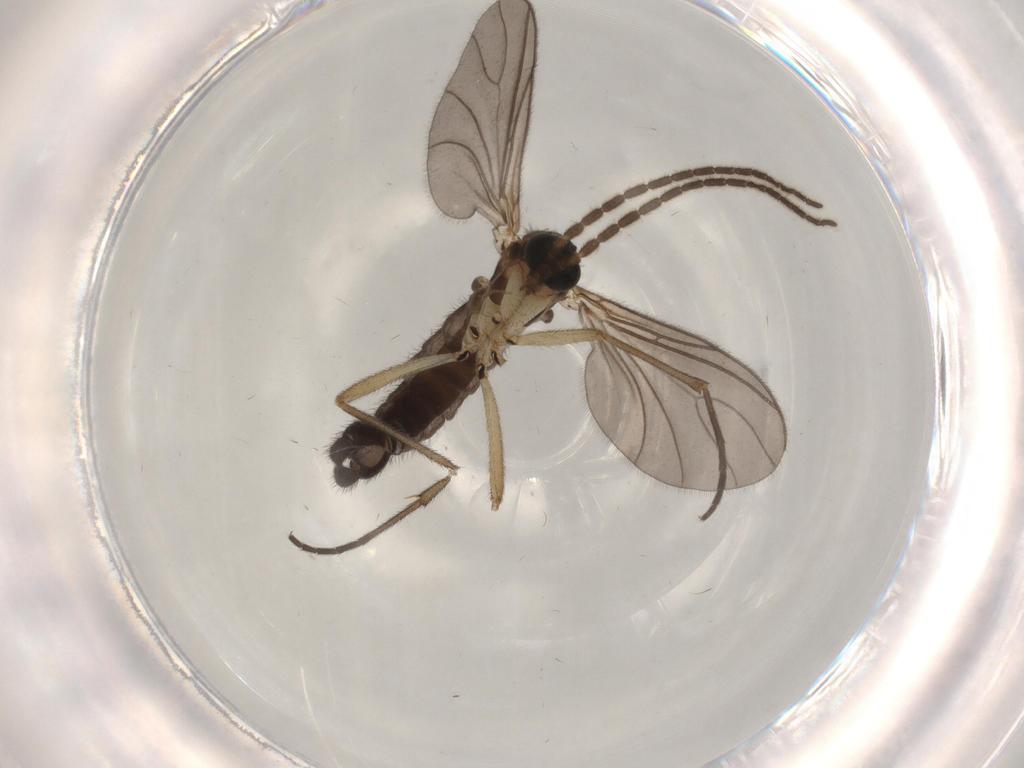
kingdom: Animalia
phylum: Arthropoda
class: Insecta
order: Diptera
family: Sciaridae
